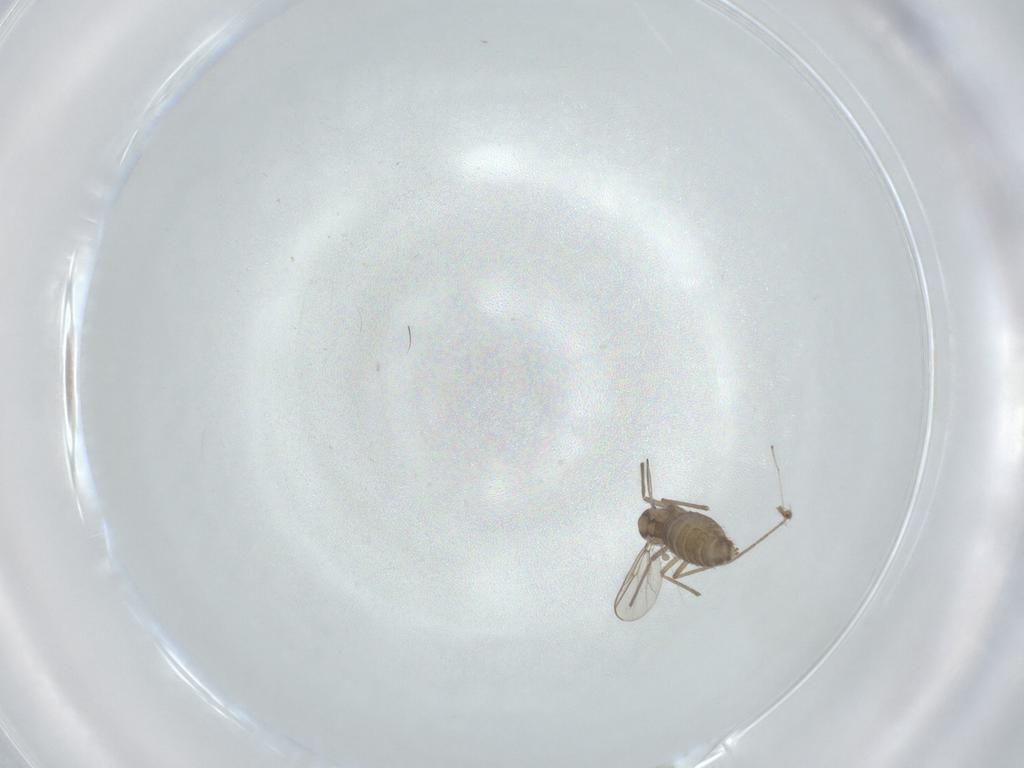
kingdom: Animalia
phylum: Arthropoda
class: Insecta
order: Diptera
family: Chironomidae
